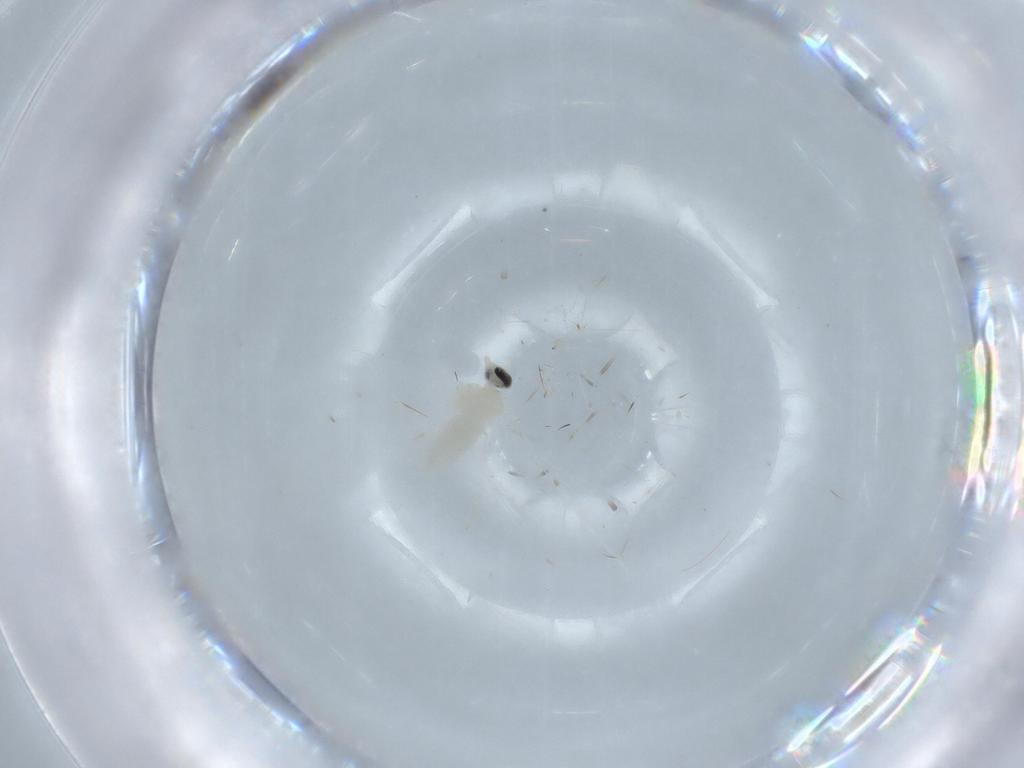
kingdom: Animalia
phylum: Arthropoda
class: Insecta
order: Diptera
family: Cecidomyiidae
